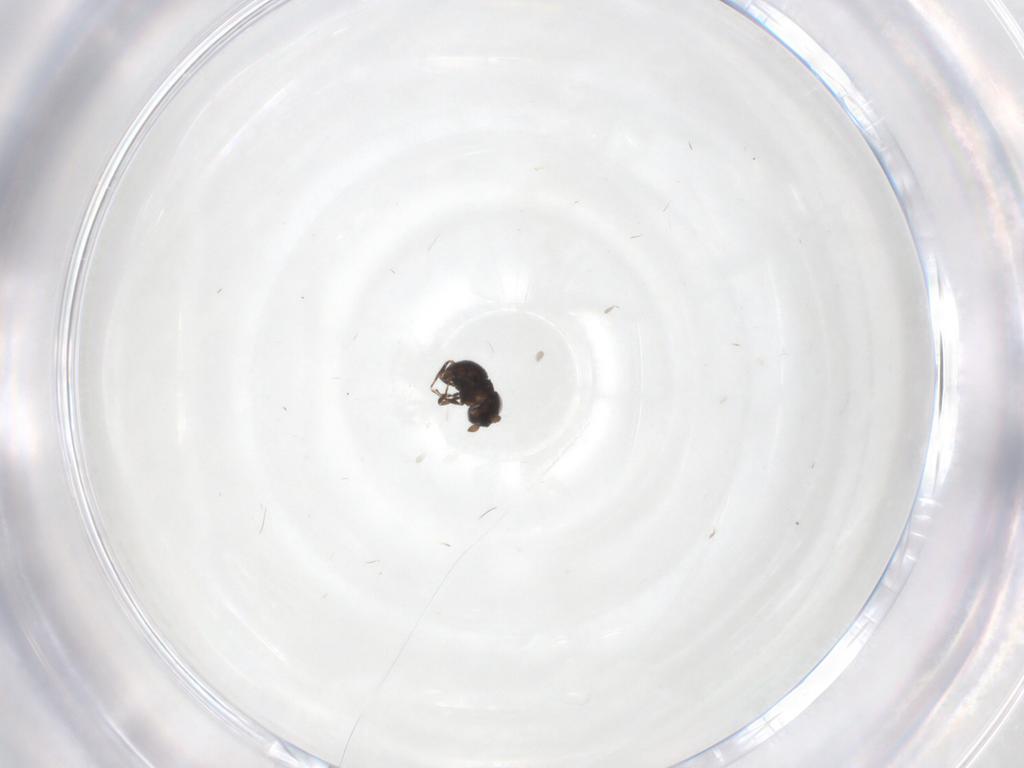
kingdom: Animalia
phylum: Arthropoda
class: Insecta
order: Hymenoptera
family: Scelionidae
